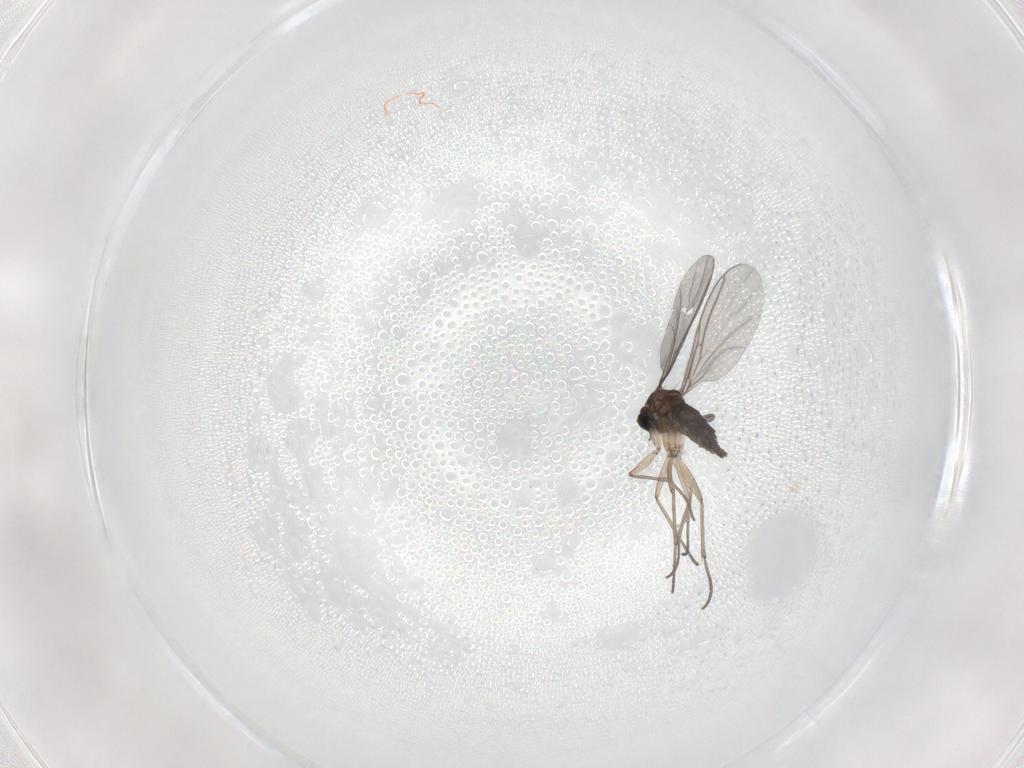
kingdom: Animalia
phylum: Arthropoda
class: Insecta
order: Diptera
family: Sciaridae
